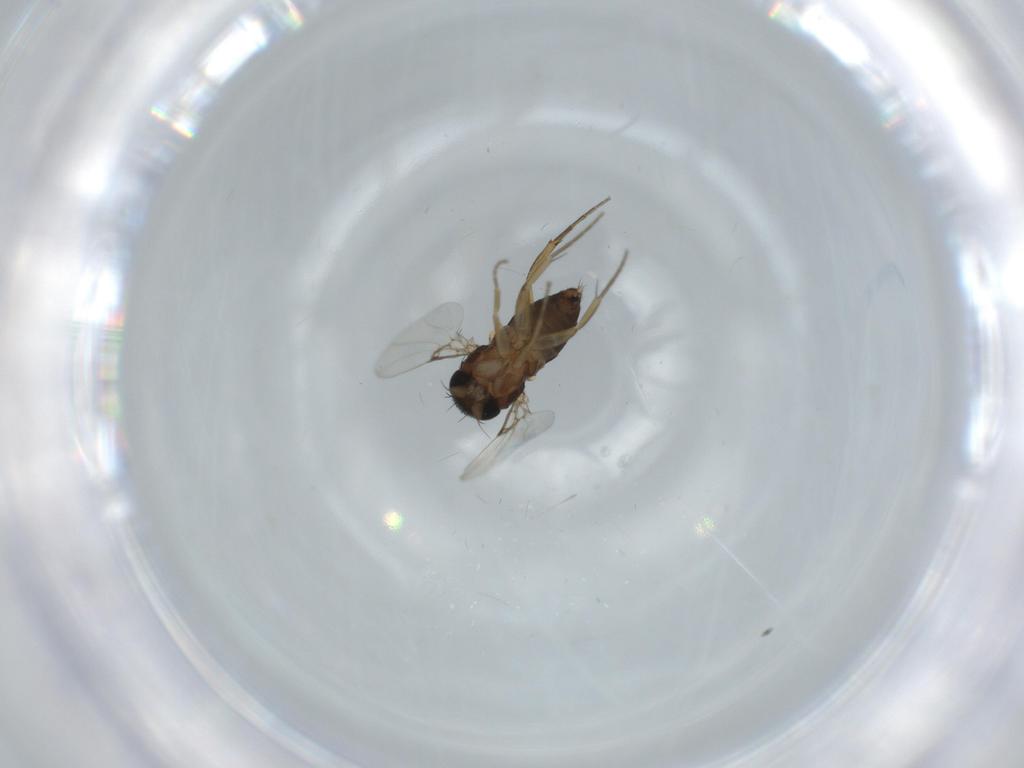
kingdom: Animalia
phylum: Arthropoda
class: Insecta
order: Diptera
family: Phoridae
